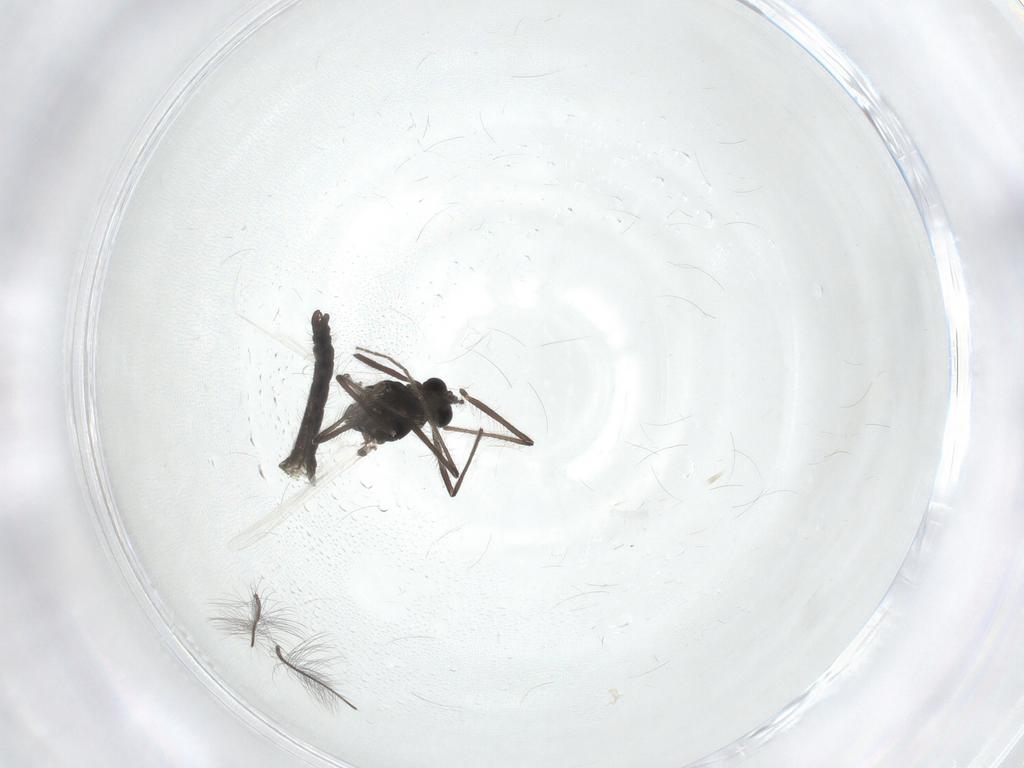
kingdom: Animalia
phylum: Arthropoda
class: Insecta
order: Diptera
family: Chironomidae
